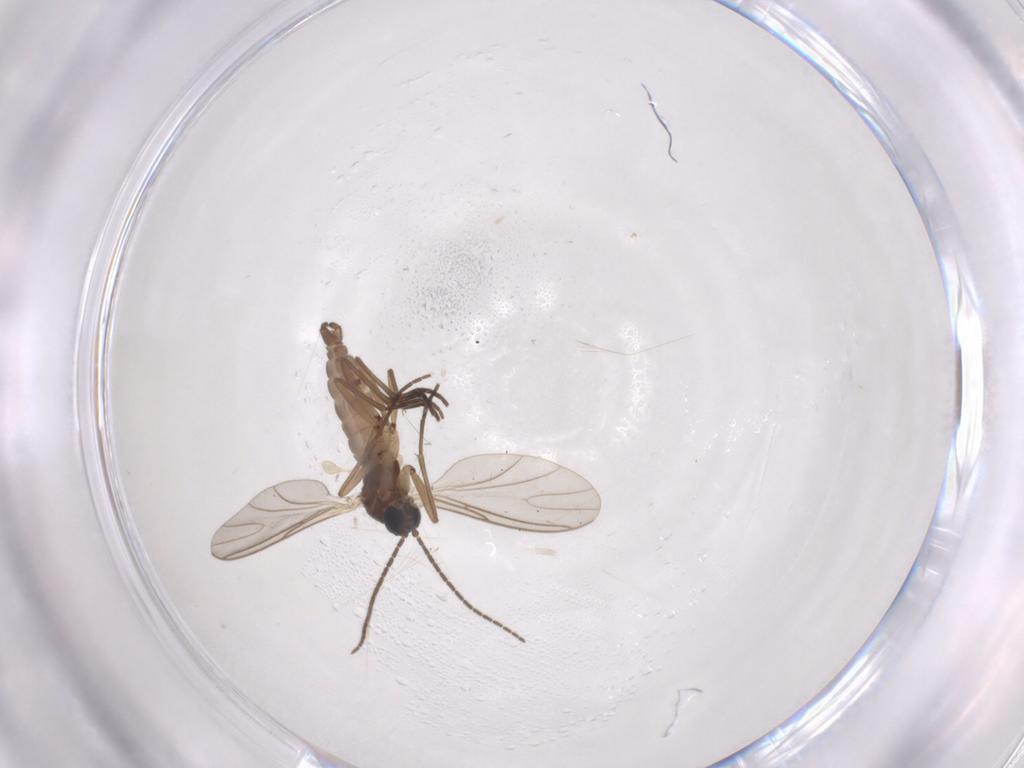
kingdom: Animalia
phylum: Arthropoda
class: Insecta
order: Diptera
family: Sciaridae
